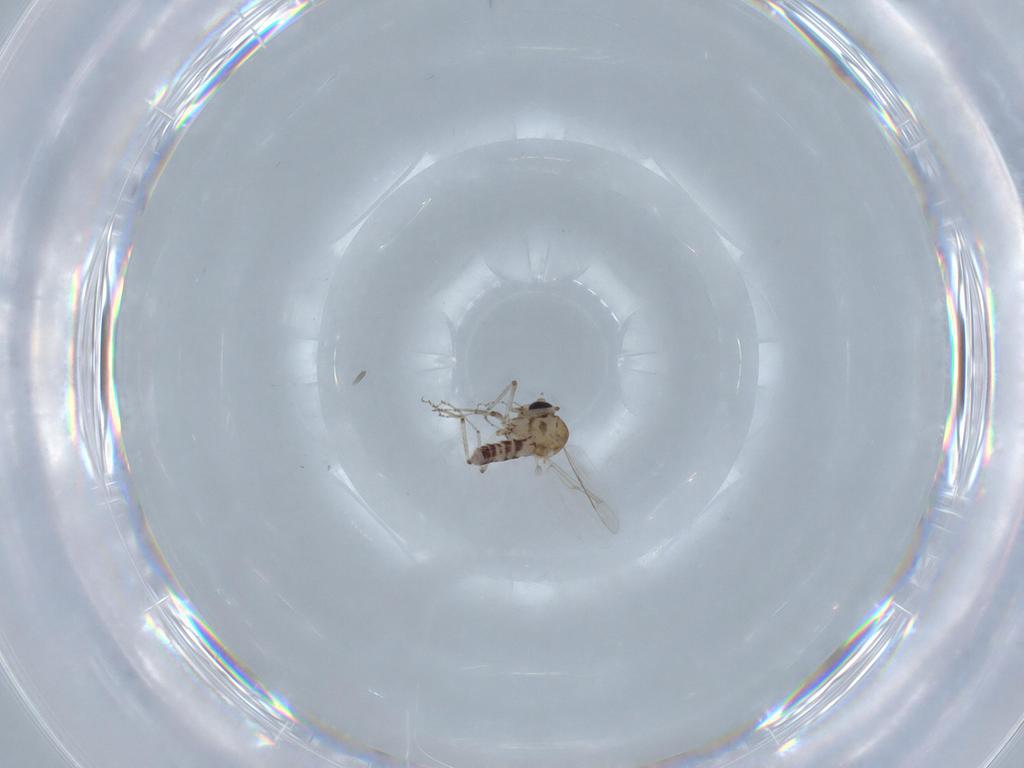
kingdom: Animalia
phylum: Arthropoda
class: Insecta
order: Diptera
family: Ceratopogonidae
